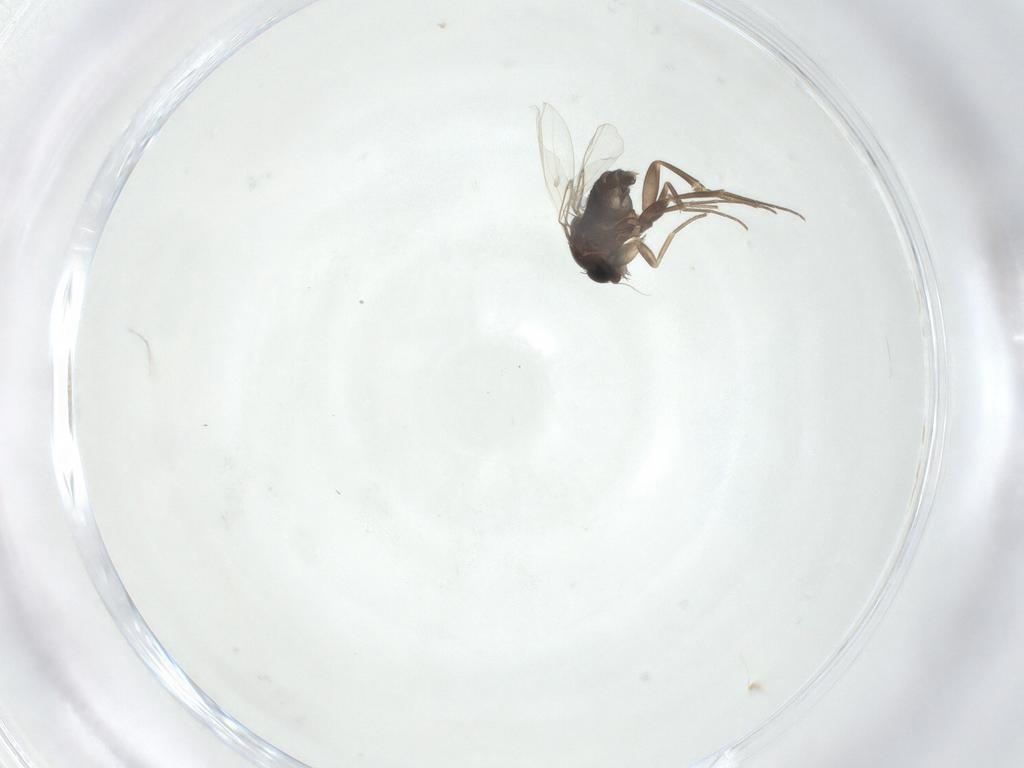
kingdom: Animalia
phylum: Arthropoda
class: Insecta
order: Diptera
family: Phoridae
